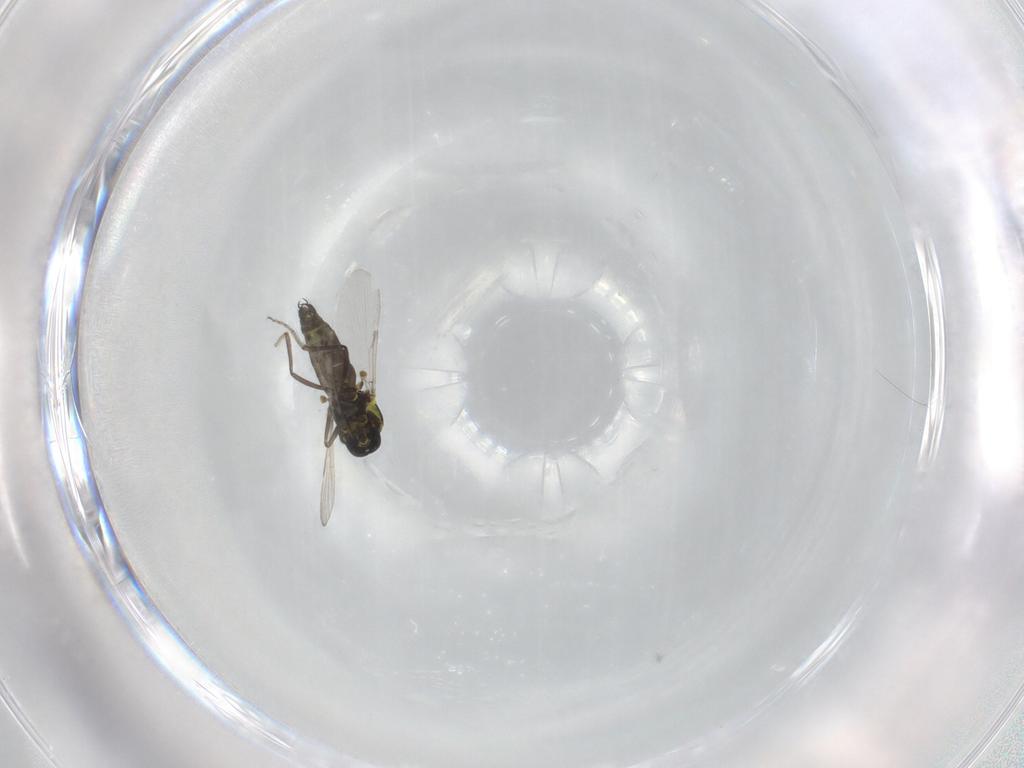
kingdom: Animalia
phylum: Arthropoda
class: Insecta
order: Diptera
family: Ceratopogonidae
